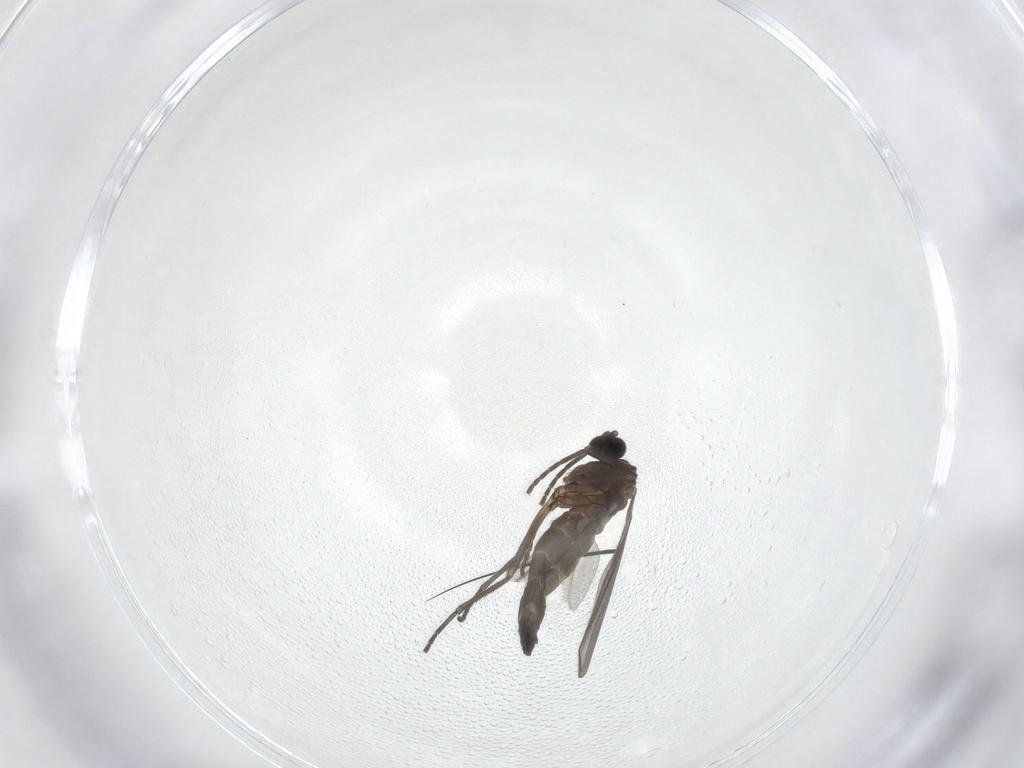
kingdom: Animalia
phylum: Arthropoda
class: Insecta
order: Diptera
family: Sciaridae
